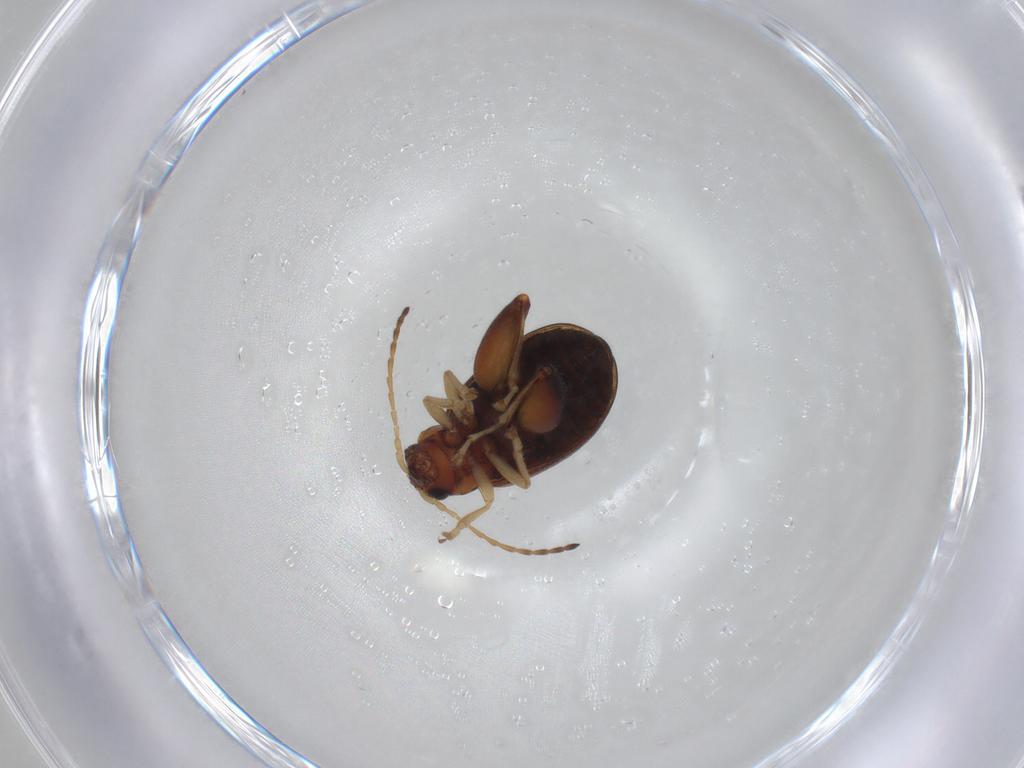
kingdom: Animalia
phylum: Arthropoda
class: Insecta
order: Coleoptera
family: Chrysomelidae
